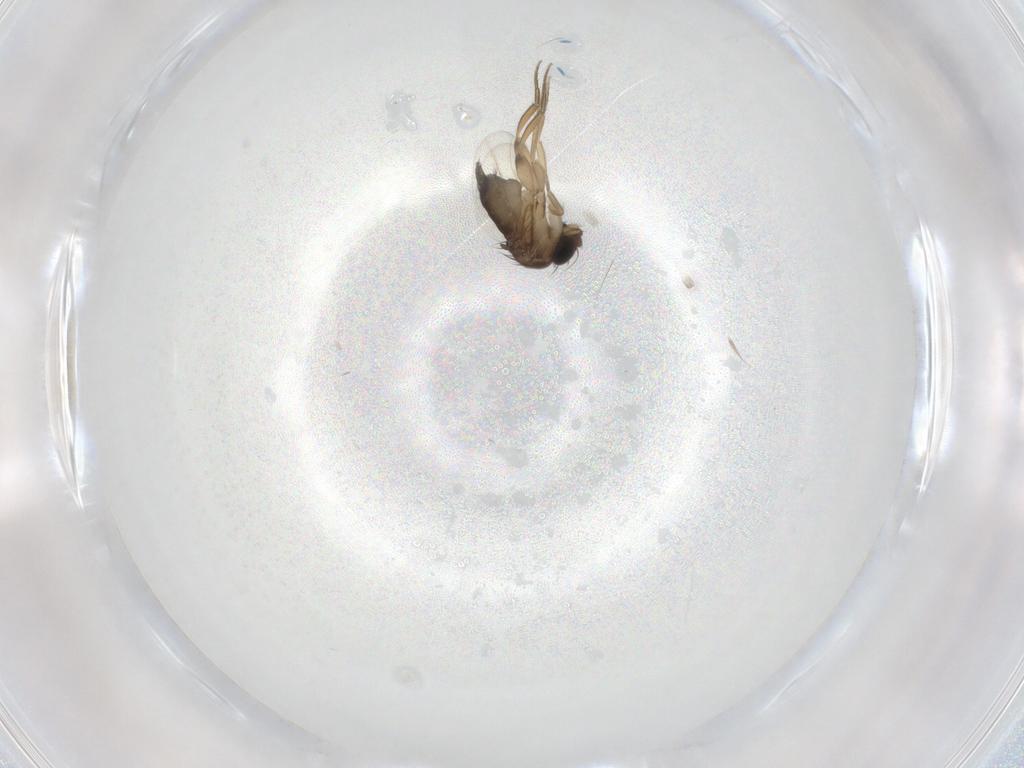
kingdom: Animalia
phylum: Arthropoda
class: Insecta
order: Diptera
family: Phoridae
